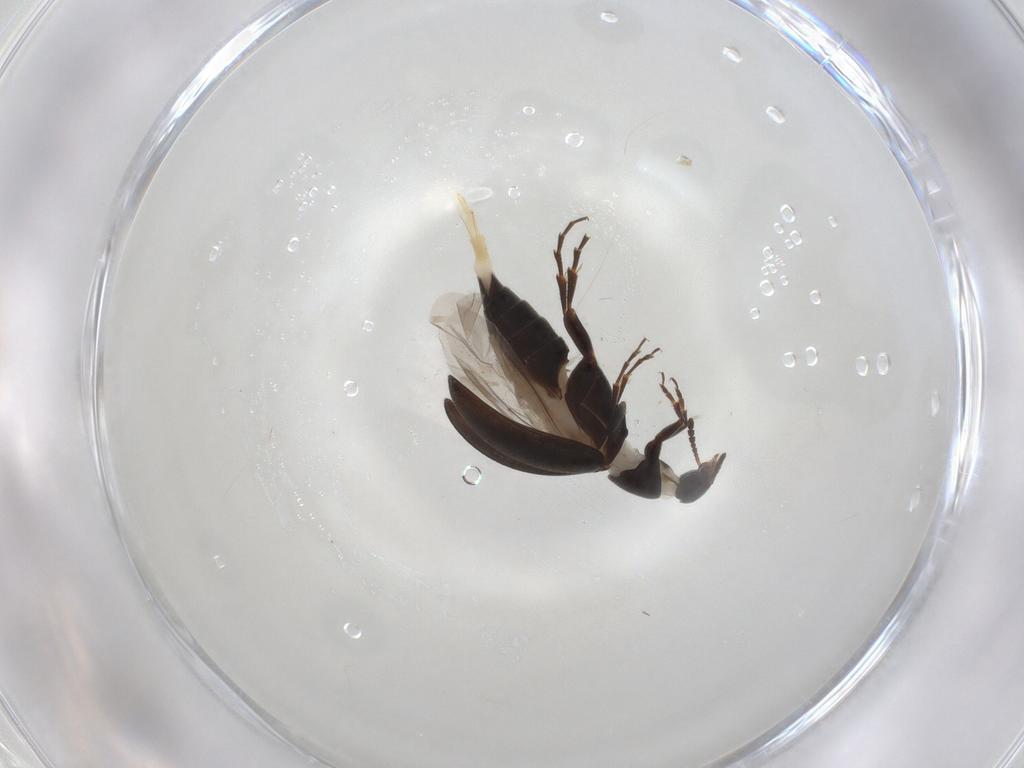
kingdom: Animalia
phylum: Arthropoda
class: Insecta
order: Coleoptera
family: Scraptiidae
